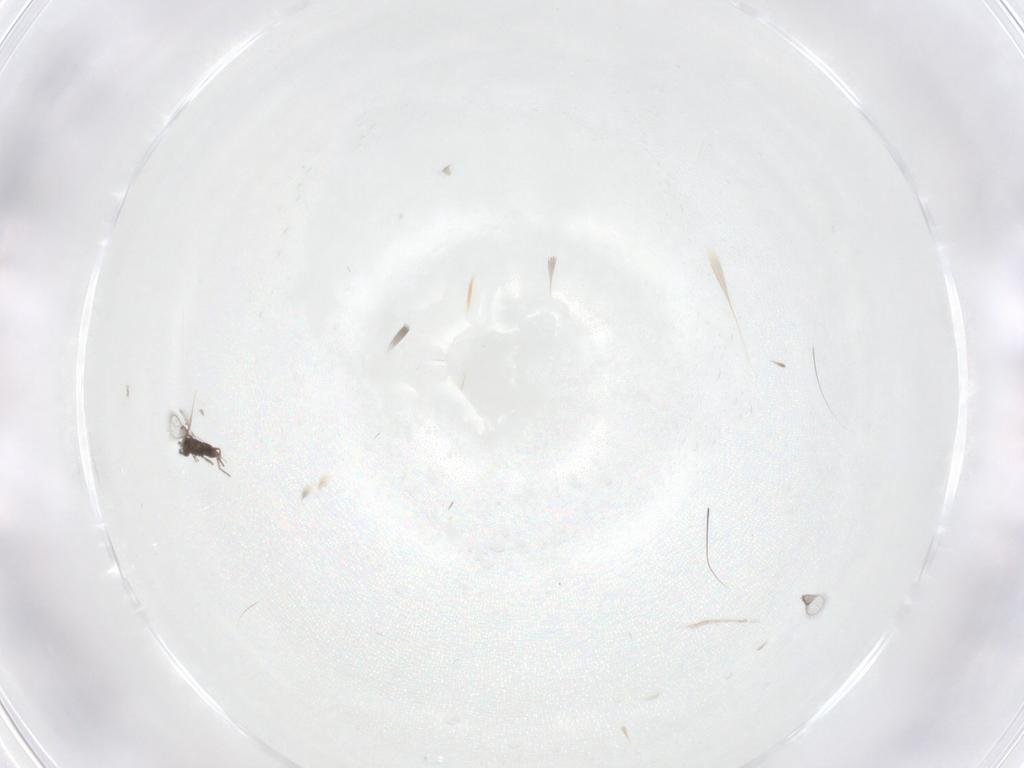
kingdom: Animalia
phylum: Arthropoda
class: Insecta
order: Hymenoptera
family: Trichogrammatidae
